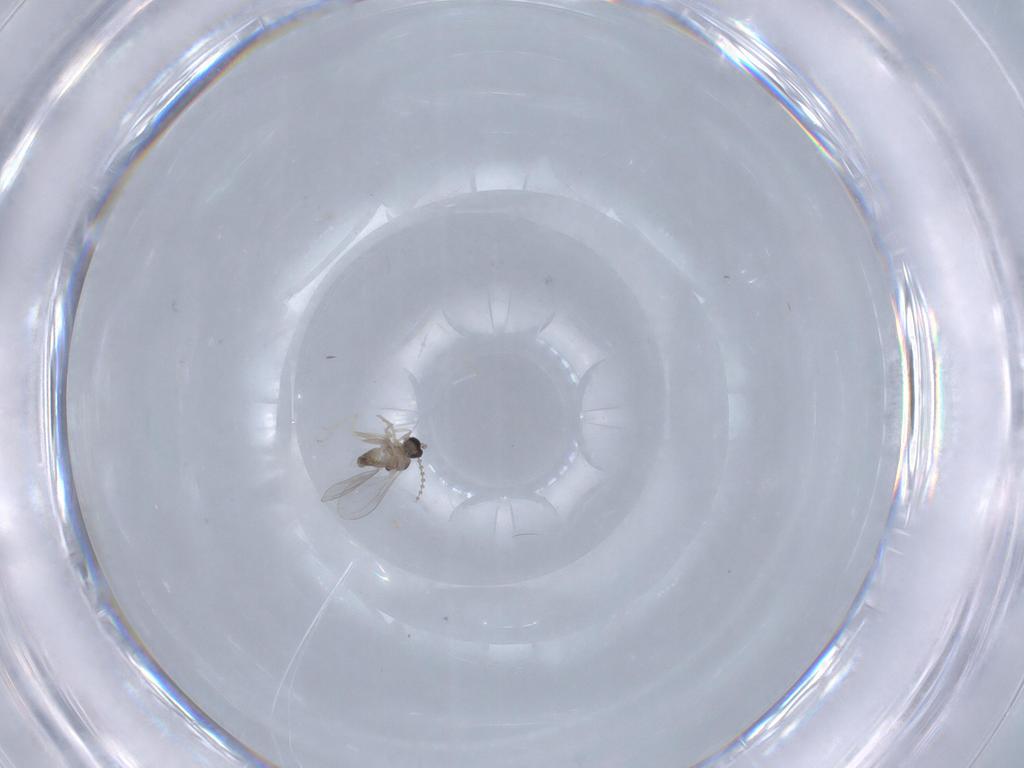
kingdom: Animalia
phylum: Arthropoda
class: Insecta
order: Diptera
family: Cecidomyiidae
